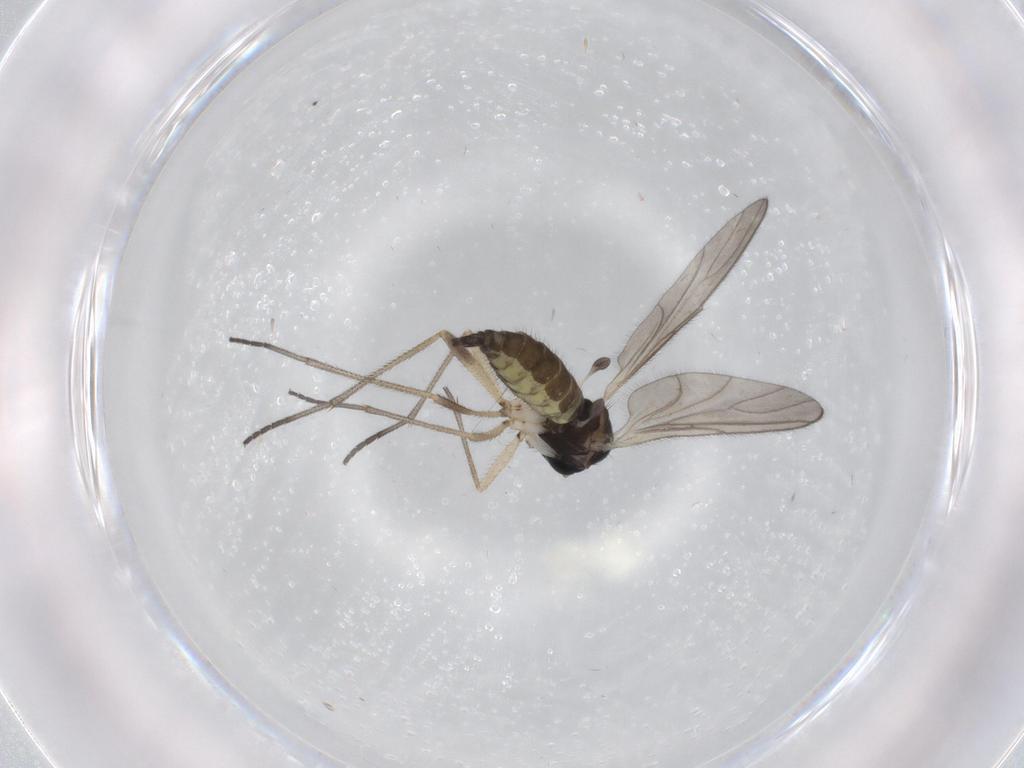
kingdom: Animalia
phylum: Arthropoda
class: Insecta
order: Diptera
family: Sciaridae
